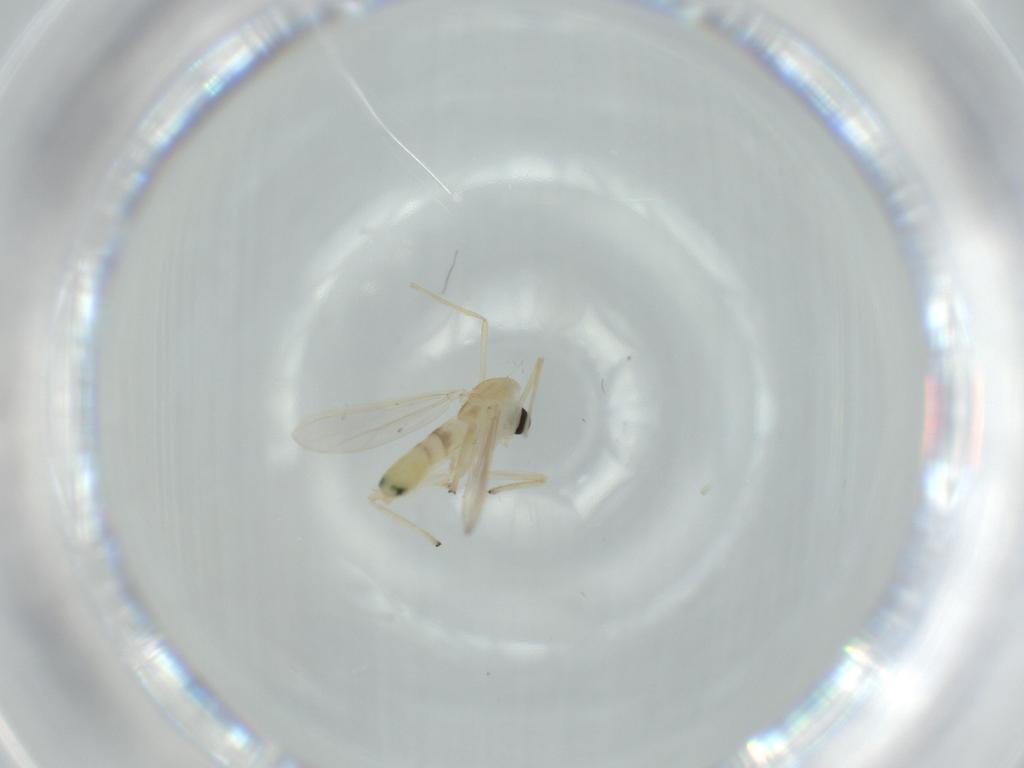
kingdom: Animalia
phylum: Arthropoda
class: Insecta
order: Diptera
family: Chironomidae
